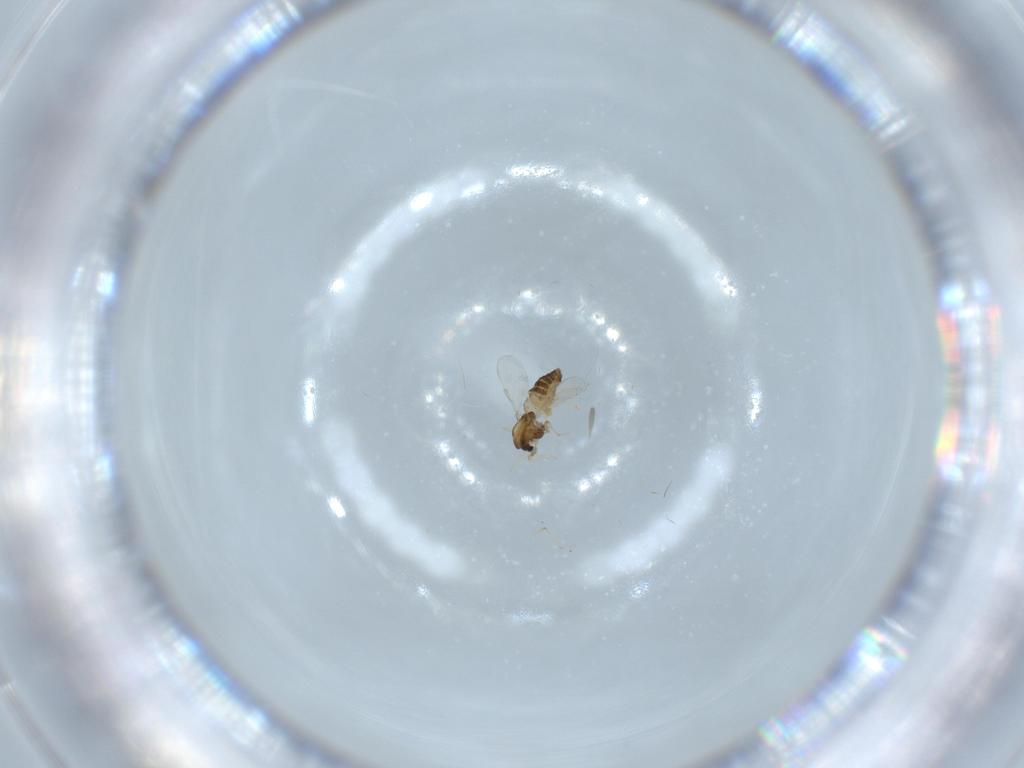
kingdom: Animalia
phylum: Arthropoda
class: Insecta
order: Diptera
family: Chironomidae
